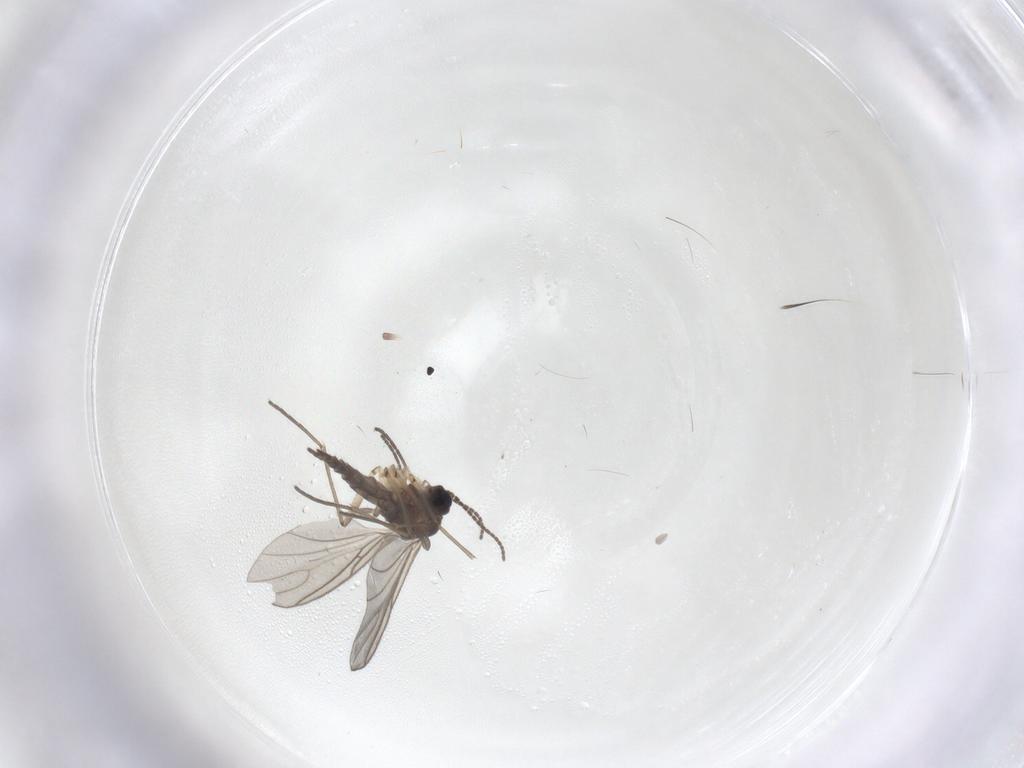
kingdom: Animalia
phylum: Arthropoda
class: Insecta
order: Diptera
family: Sciaridae
